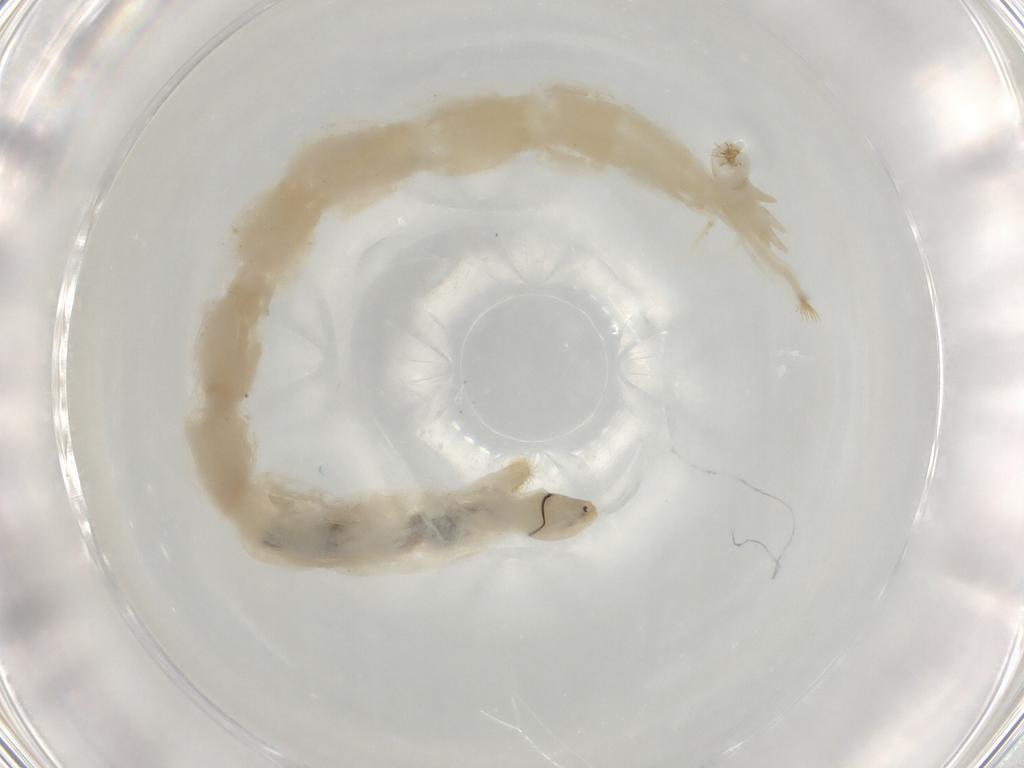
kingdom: Animalia
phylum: Arthropoda
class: Insecta
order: Diptera
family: Chironomidae
